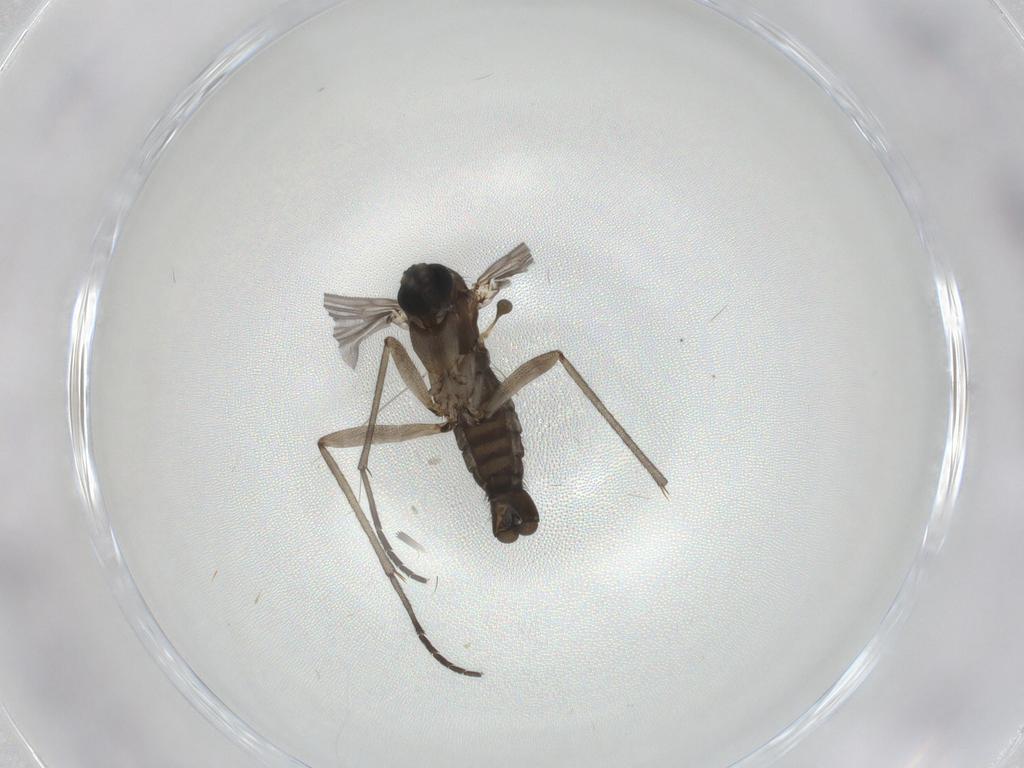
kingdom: Animalia
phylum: Arthropoda
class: Insecta
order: Diptera
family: Sciaridae
